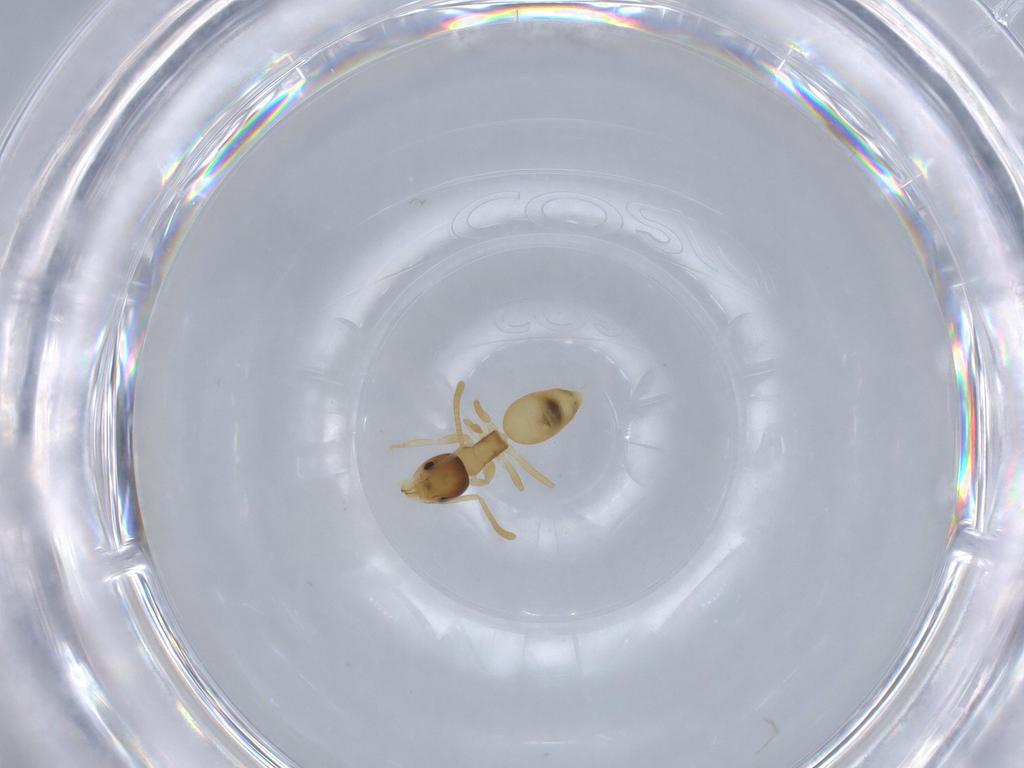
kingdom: Animalia
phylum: Arthropoda
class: Insecta
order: Hymenoptera
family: Formicidae
